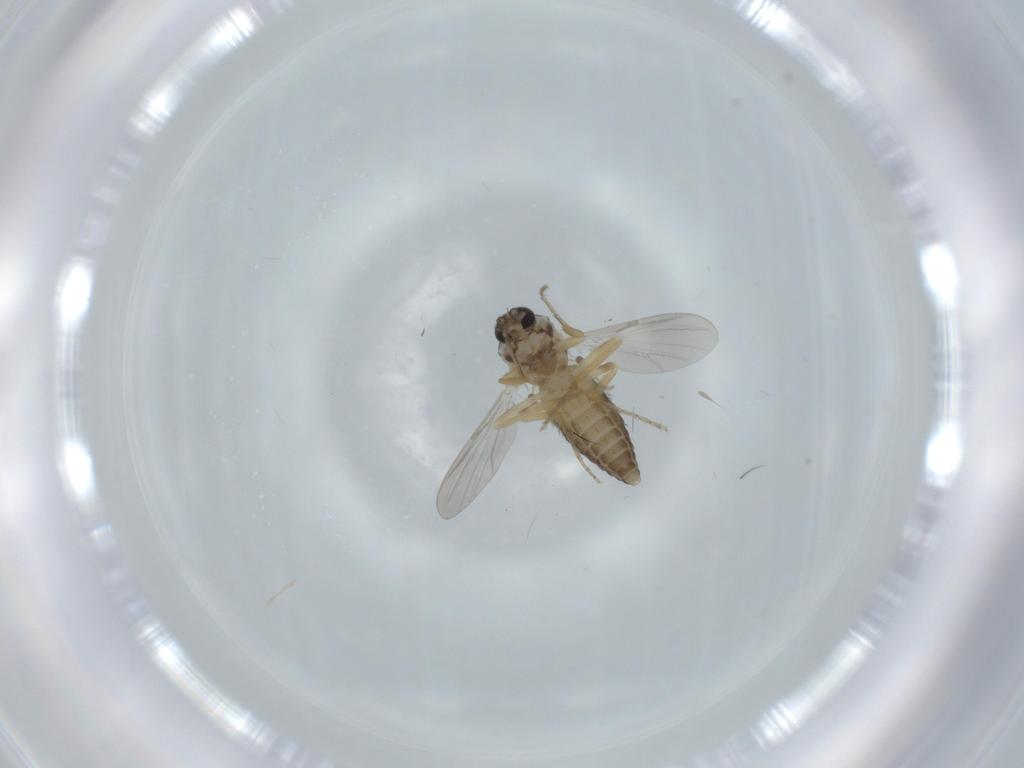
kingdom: Animalia
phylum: Arthropoda
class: Insecta
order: Diptera
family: Ceratopogonidae
